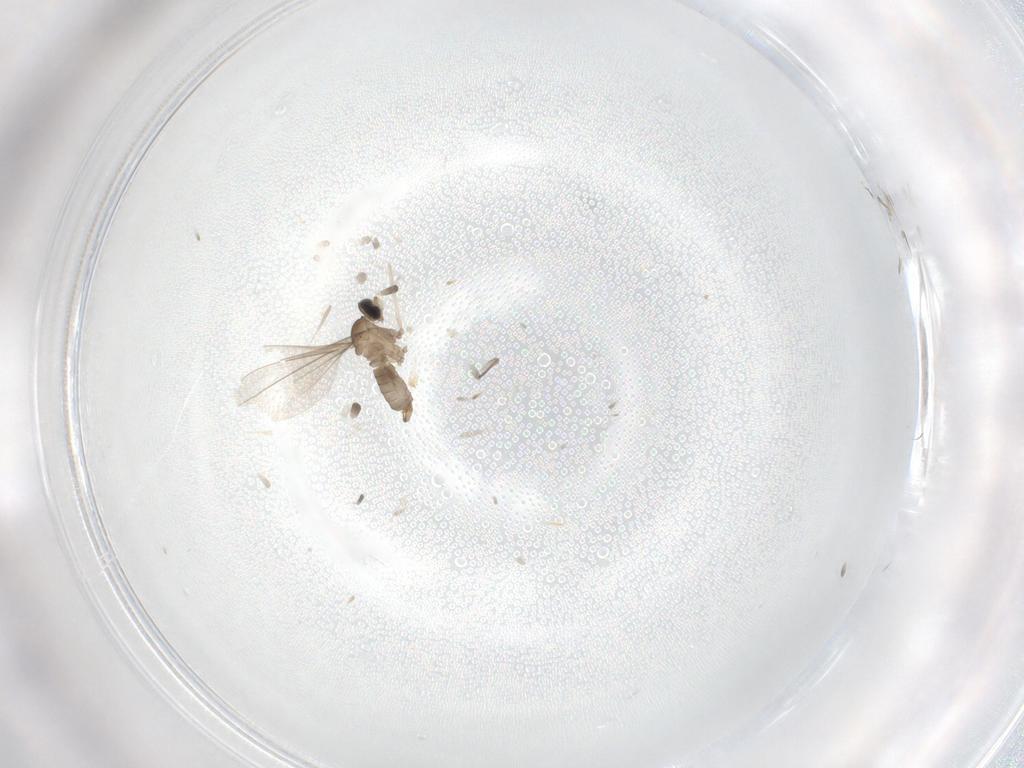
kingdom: Animalia
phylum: Arthropoda
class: Insecta
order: Diptera
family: Cecidomyiidae
